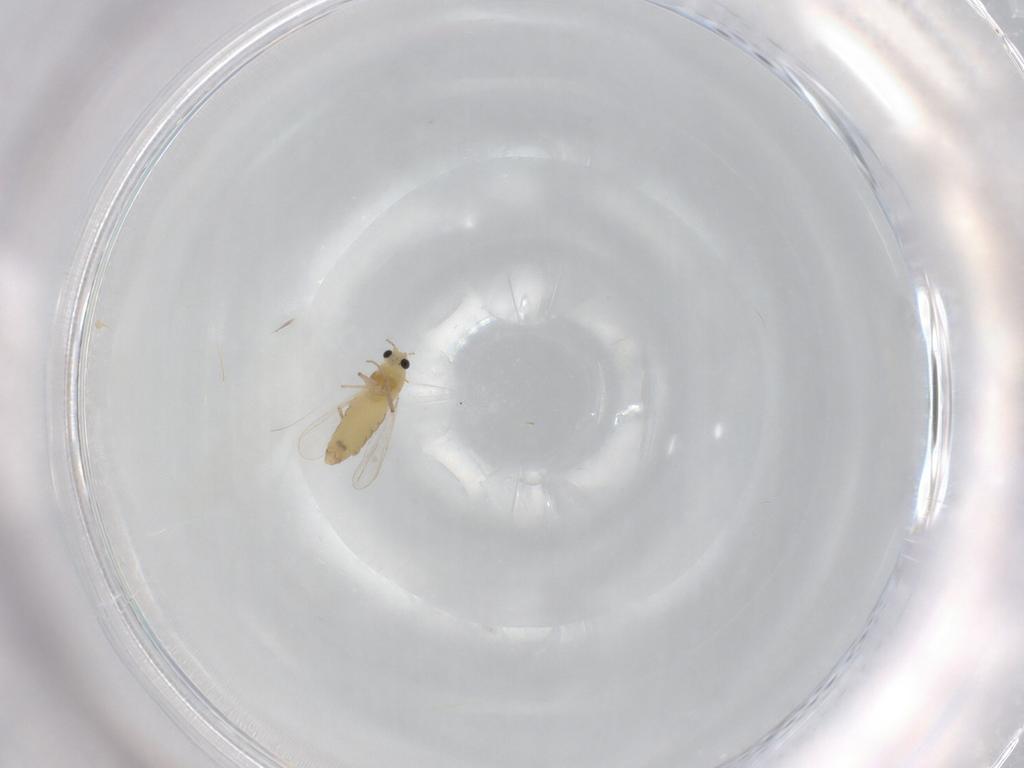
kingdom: Animalia
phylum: Arthropoda
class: Insecta
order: Diptera
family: Chironomidae
